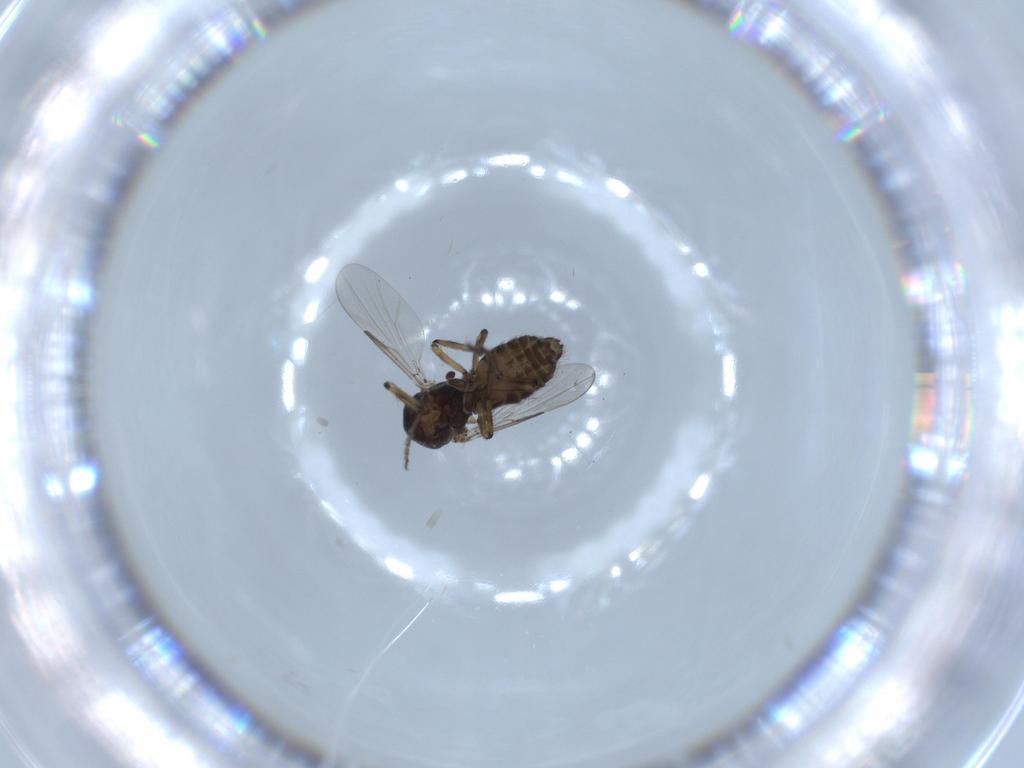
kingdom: Animalia
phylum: Arthropoda
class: Insecta
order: Diptera
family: Ceratopogonidae
